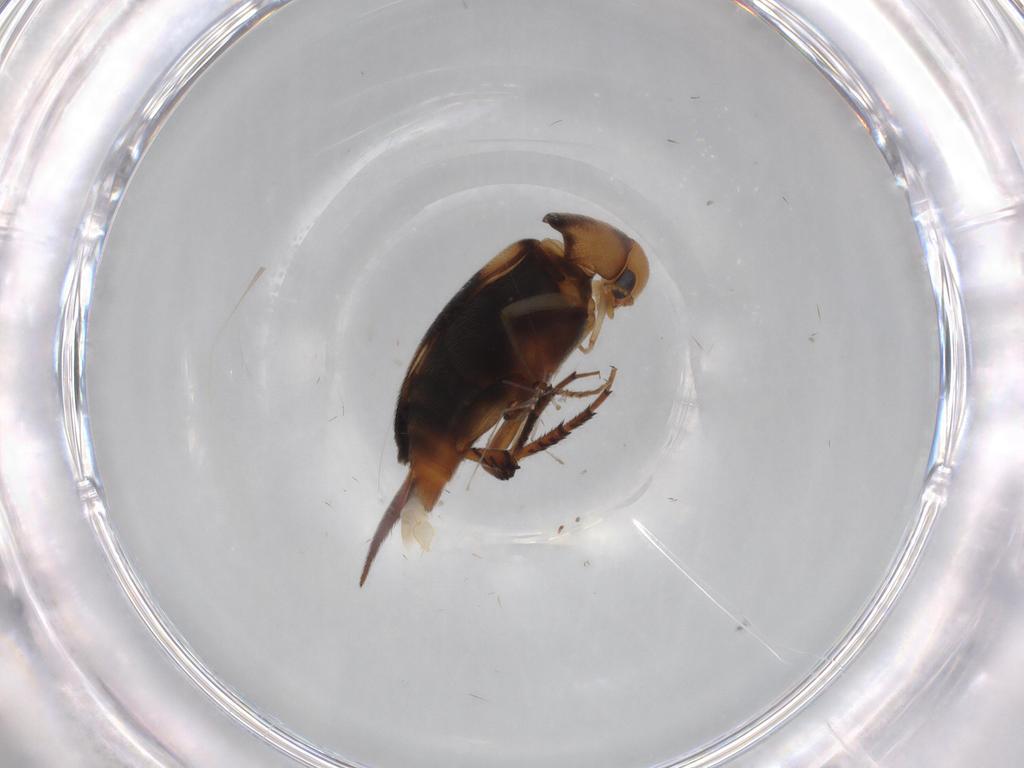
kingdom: Animalia
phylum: Arthropoda
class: Insecta
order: Coleoptera
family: Mordellidae
